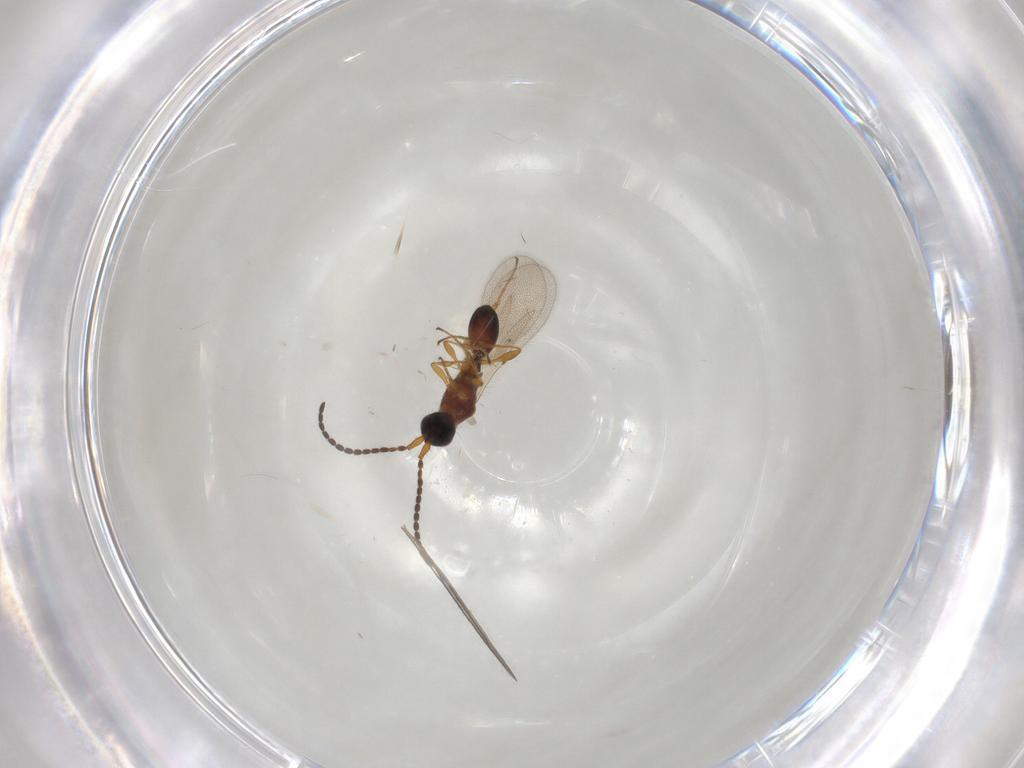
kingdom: Animalia
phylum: Arthropoda
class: Insecta
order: Hymenoptera
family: Diapriidae
